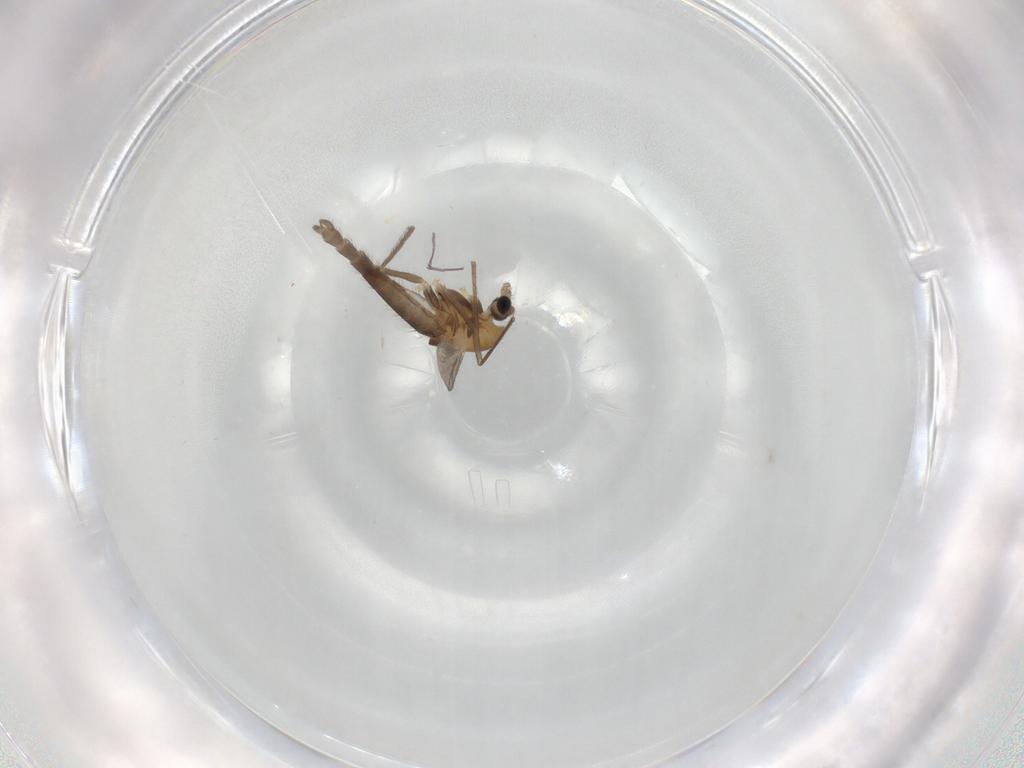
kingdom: Animalia
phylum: Arthropoda
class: Insecta
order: Diptera
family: Chironomidae
